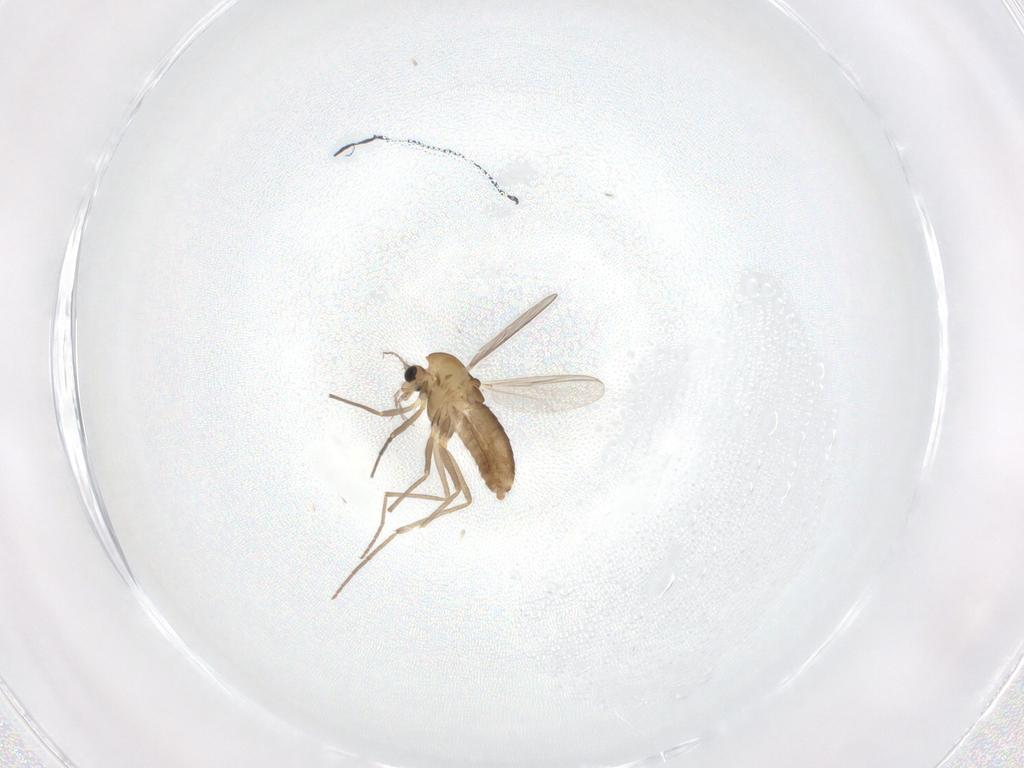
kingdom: Animalia
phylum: Arthropoda
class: Insecta
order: Diptera
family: Chironomidae
